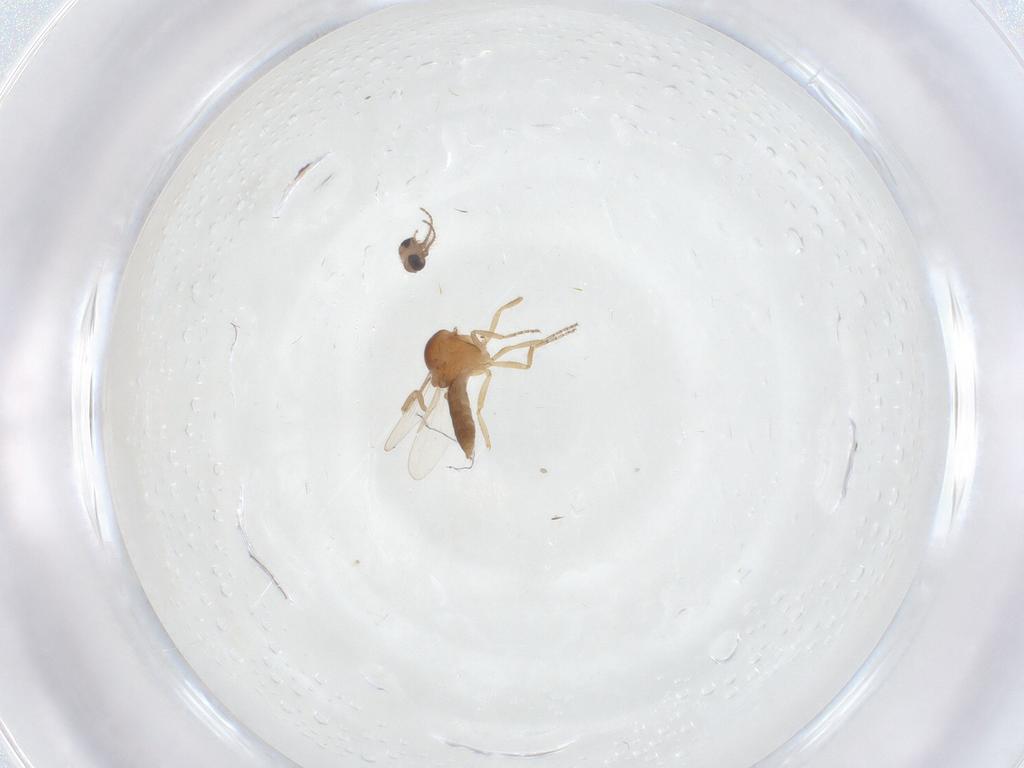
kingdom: Animalia
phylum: Arthropoda
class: Insecta
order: Diptera
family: Ceratopogonidae
